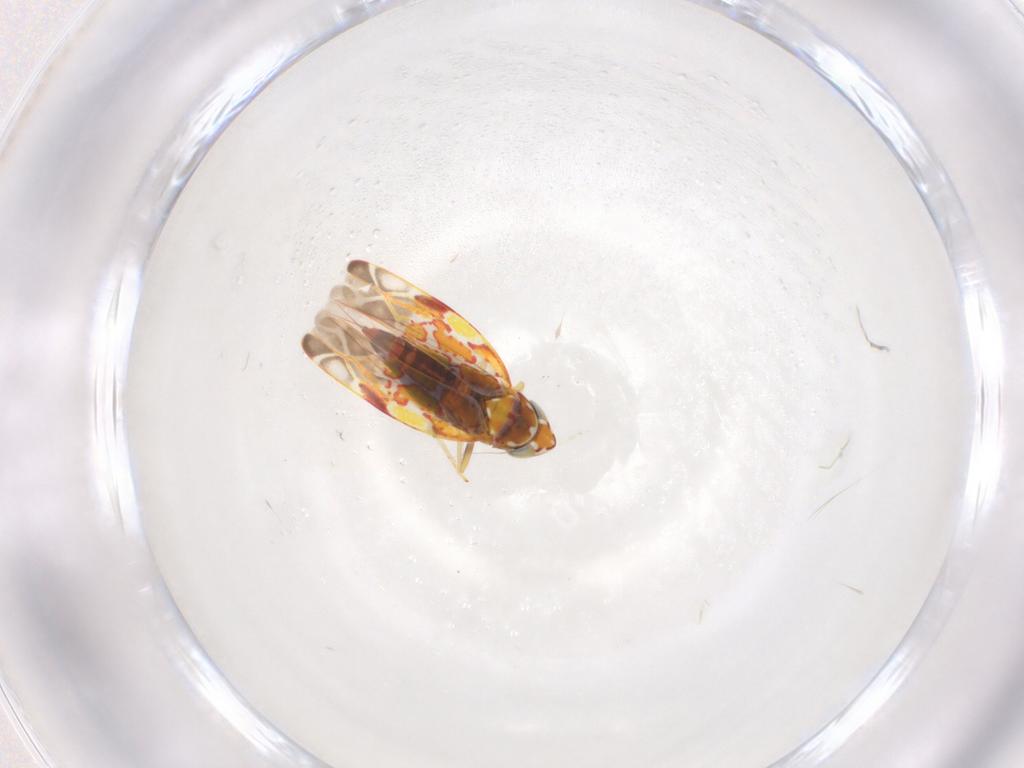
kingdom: Animalia
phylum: Arthropoda
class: Insecta
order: Hemiptera
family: Cicadellidae
